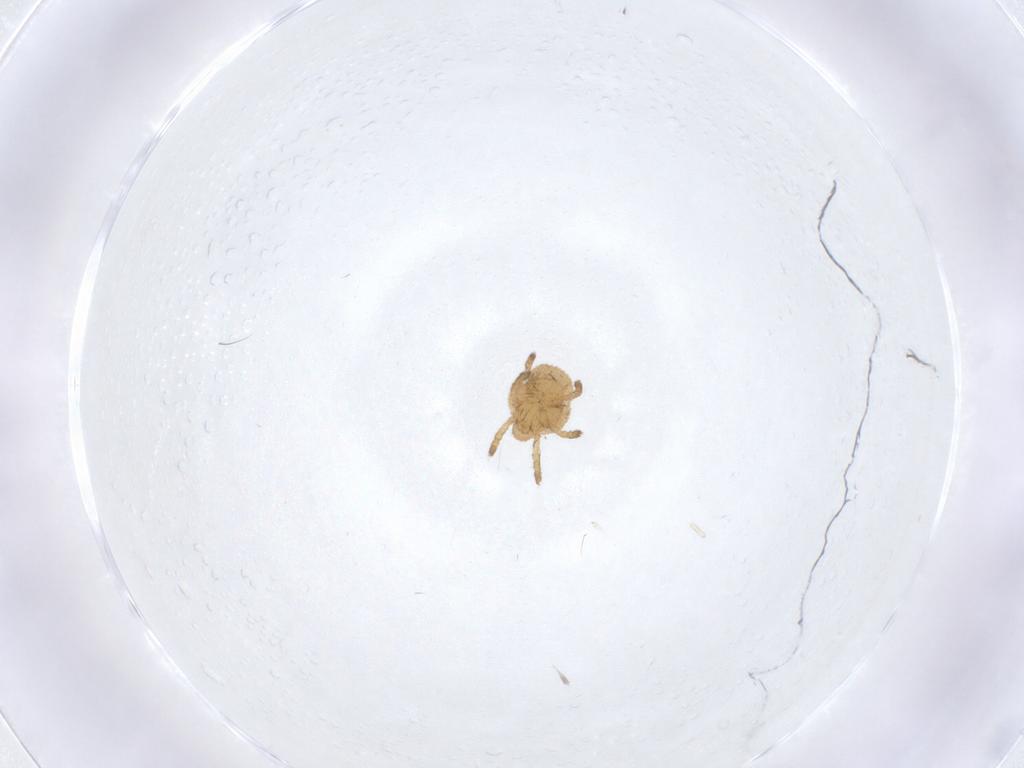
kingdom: Animalia
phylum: Arthropoda
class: Arachnida
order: Trombidiformes
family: Calyptostomatidae
